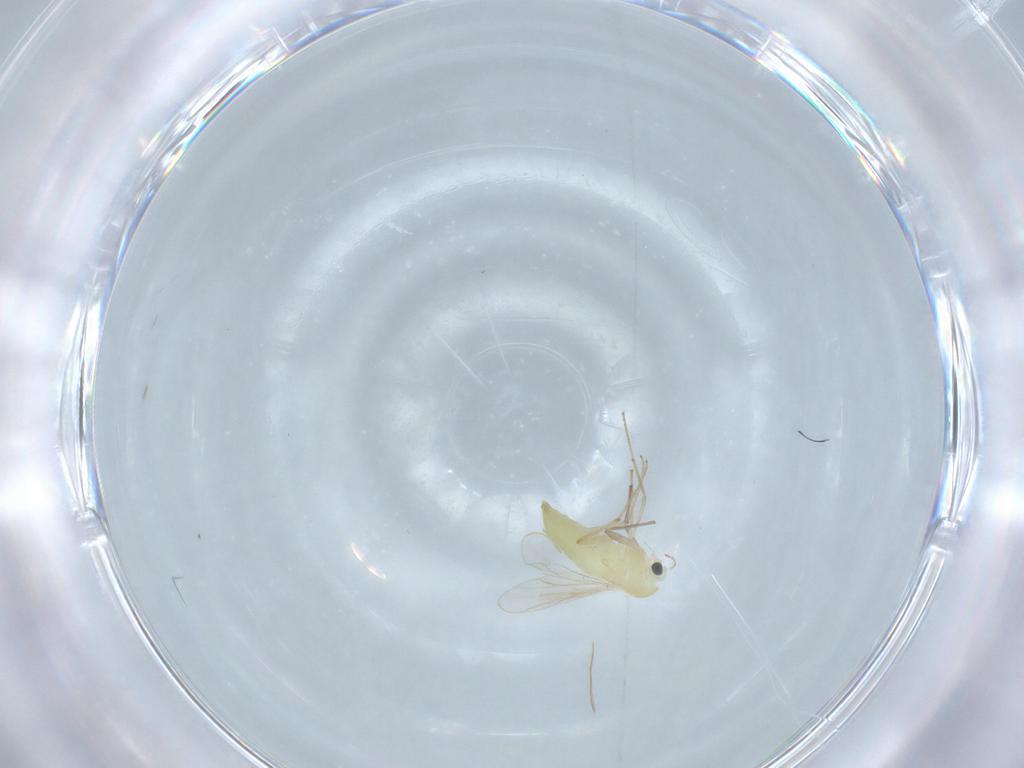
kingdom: Animalia
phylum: Arthropoda
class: Insecta
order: Diptera
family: Chironomidae
